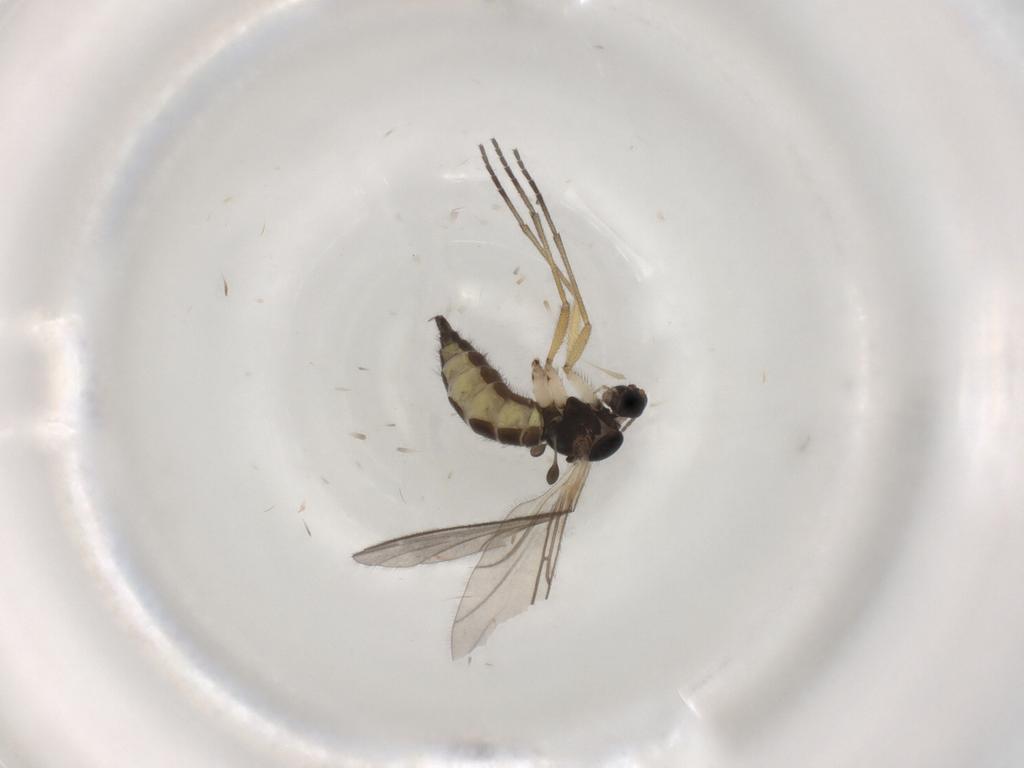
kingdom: Animalia
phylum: Arthropoda
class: Insecta
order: Diptera
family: Sciaridae
